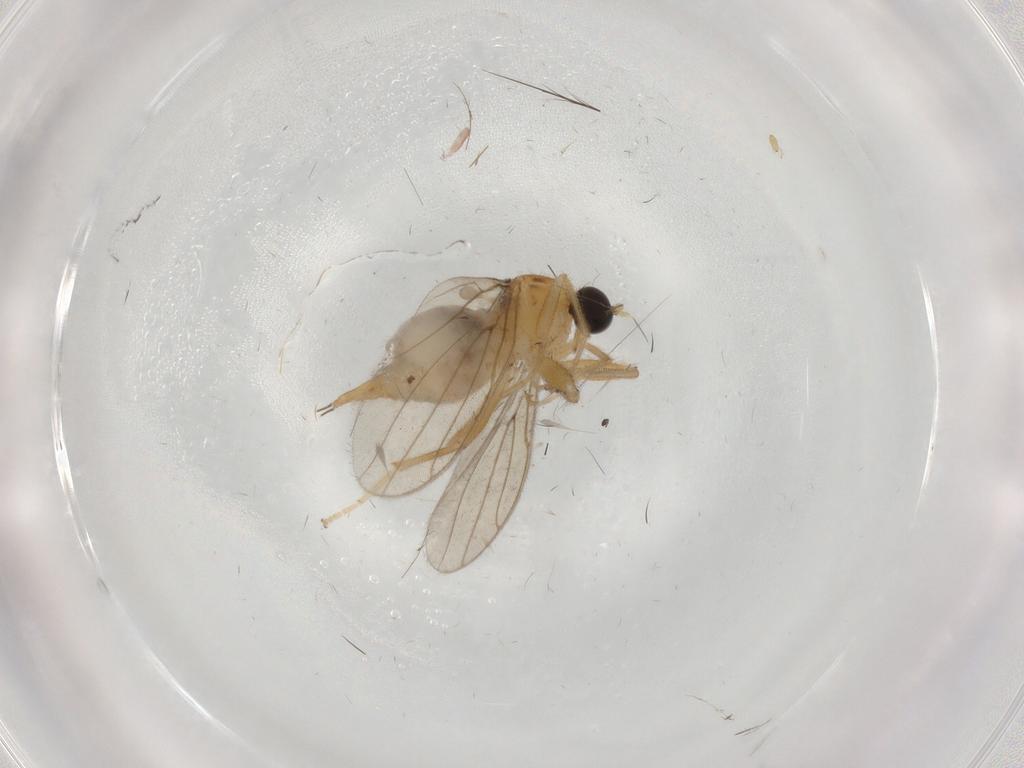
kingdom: Animalia
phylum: Arthropoda
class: Insecta
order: Diptera
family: Hybotidae
